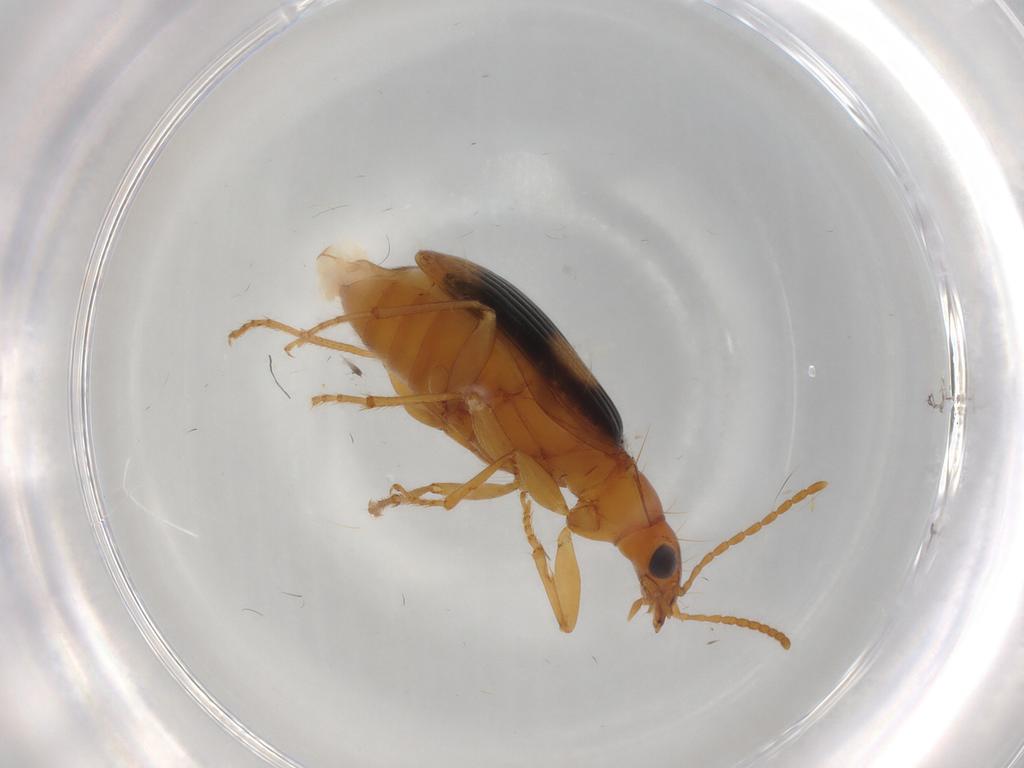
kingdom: Animalia
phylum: Arthropoda
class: Insecta
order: Coleoptera
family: Carabidae
